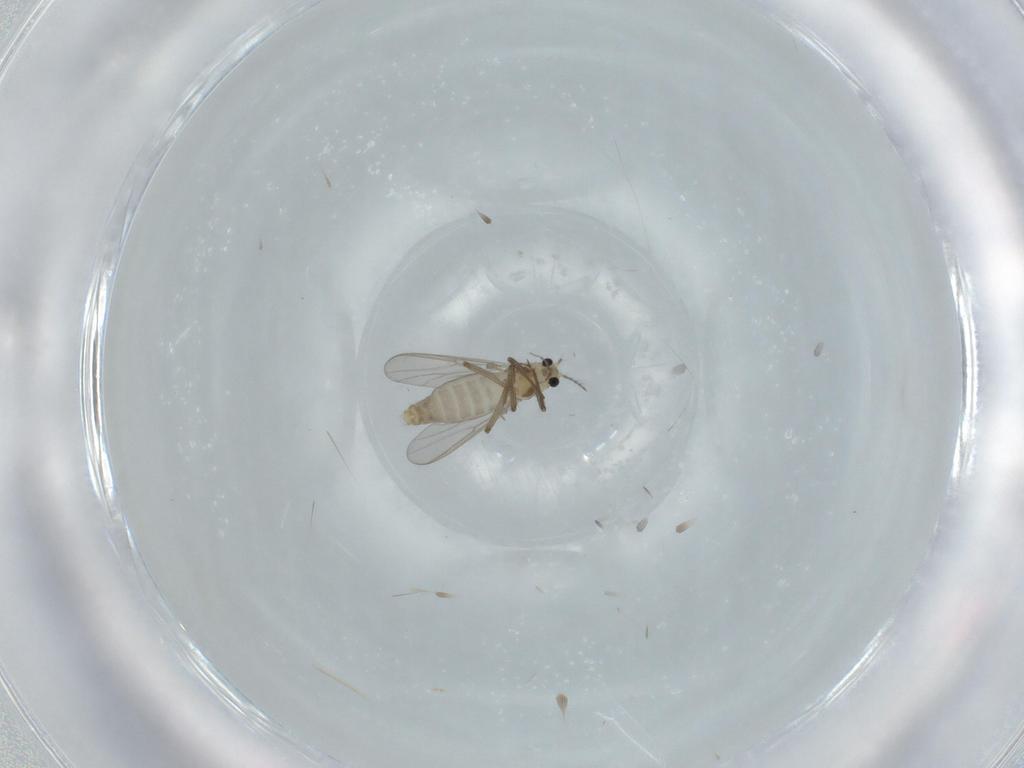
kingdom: Animalia
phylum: Arthropoda
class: Insecta
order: Diptera
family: Chironomidae
